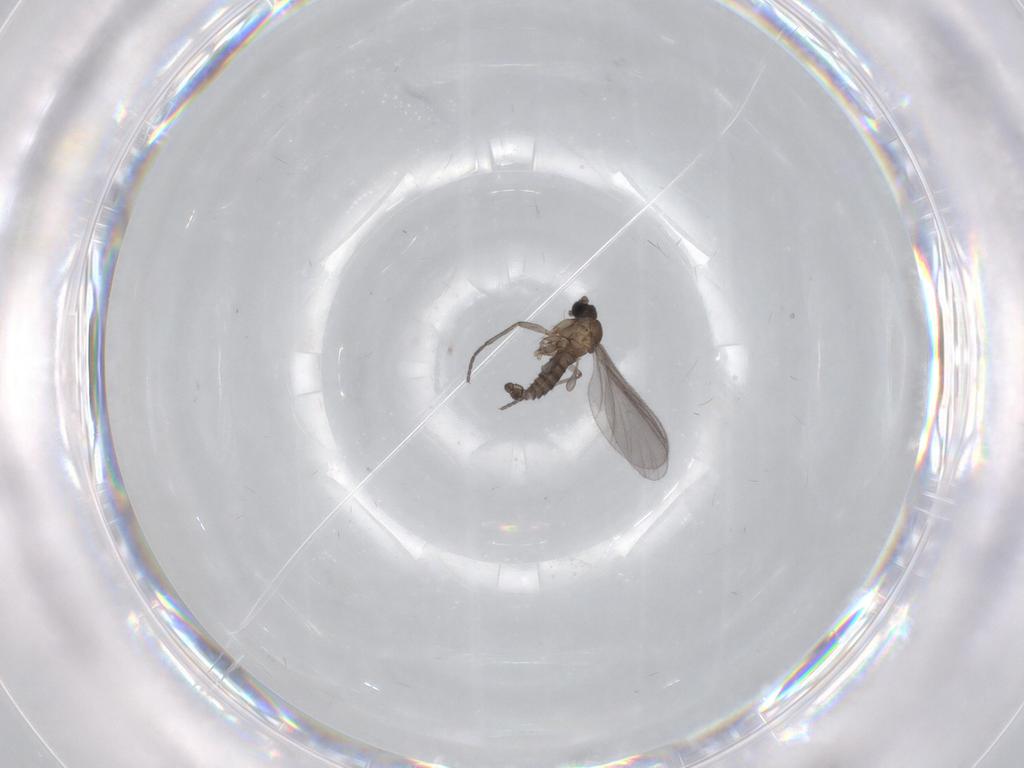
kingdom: Animalia
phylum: Arthropoda
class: Insecta
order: Diptera
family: Sciaridae
